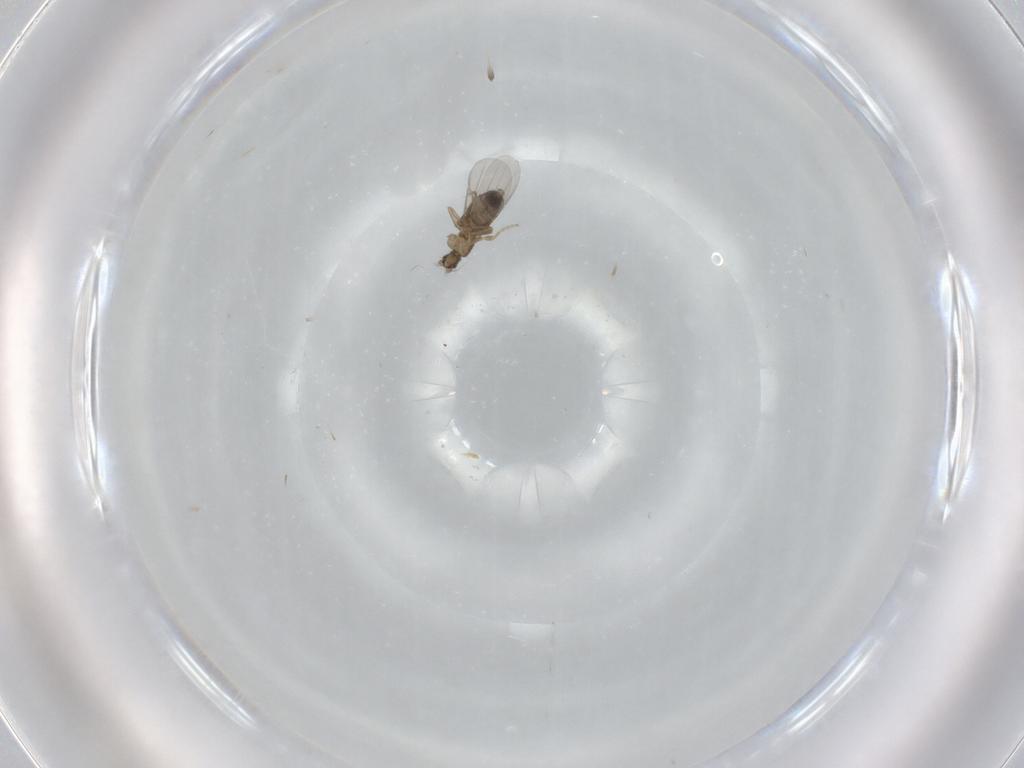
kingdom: Animalia
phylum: Arthropoda
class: Insecta
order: Diptera
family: Phoridae
